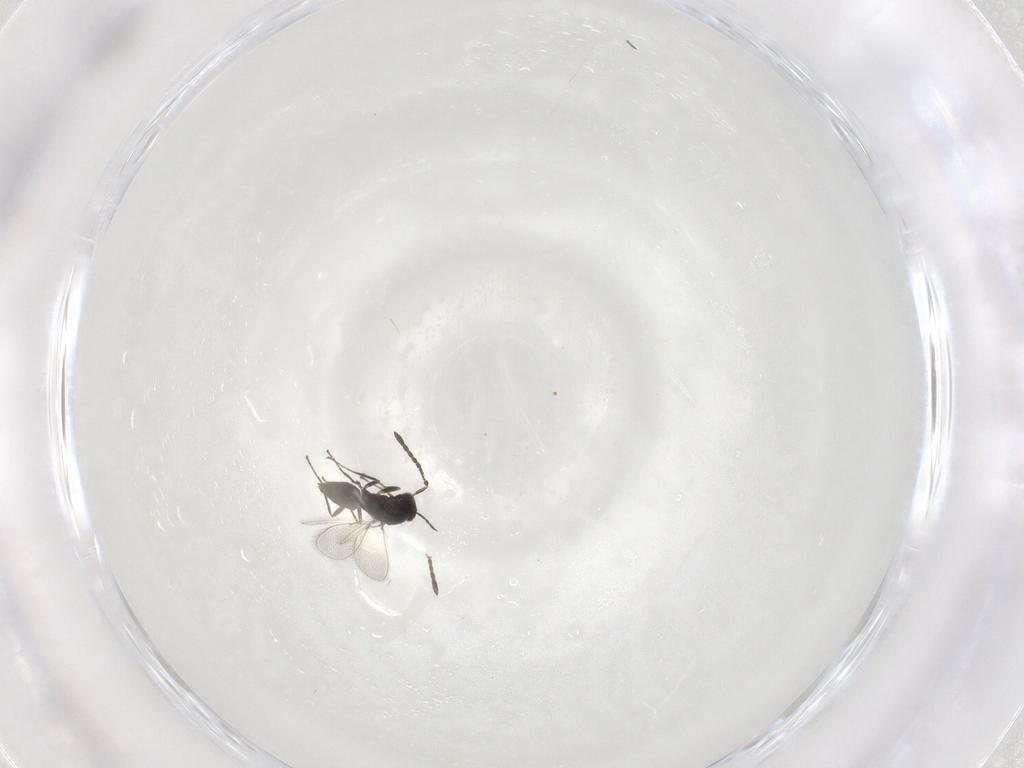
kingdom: Animalia
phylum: Arthropoda
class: Insecta
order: Hymenoptera
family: Mymaridae
